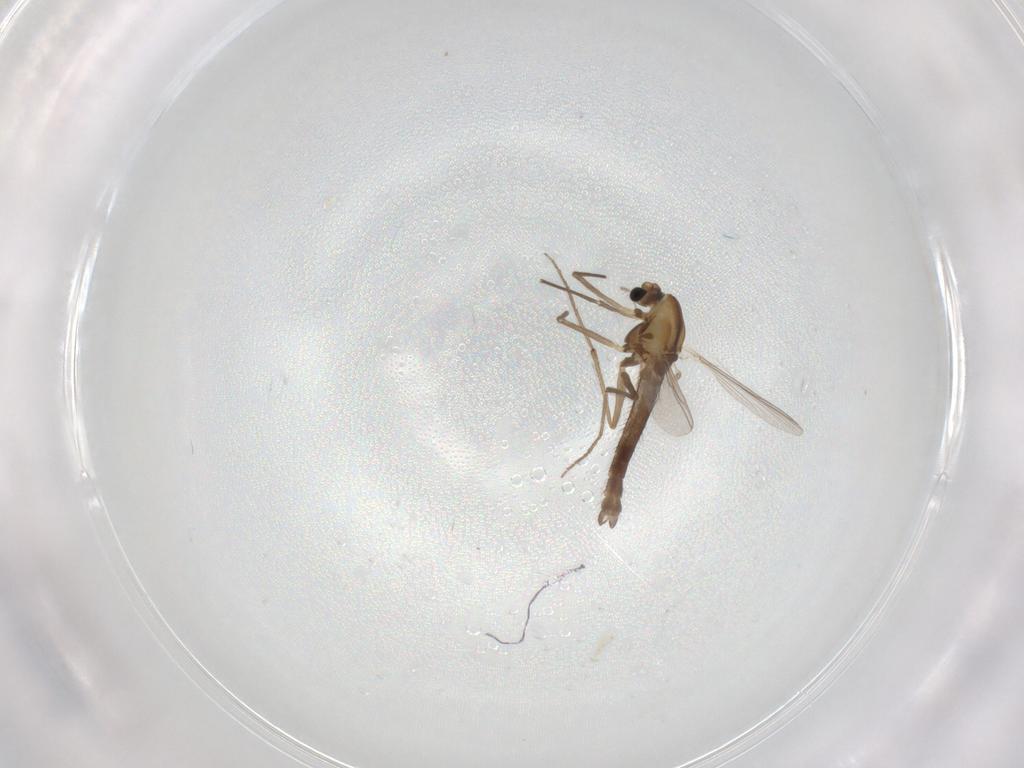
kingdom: Animalia
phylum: Arthropoda
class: Insecta
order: Diptera
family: Chironomidae
